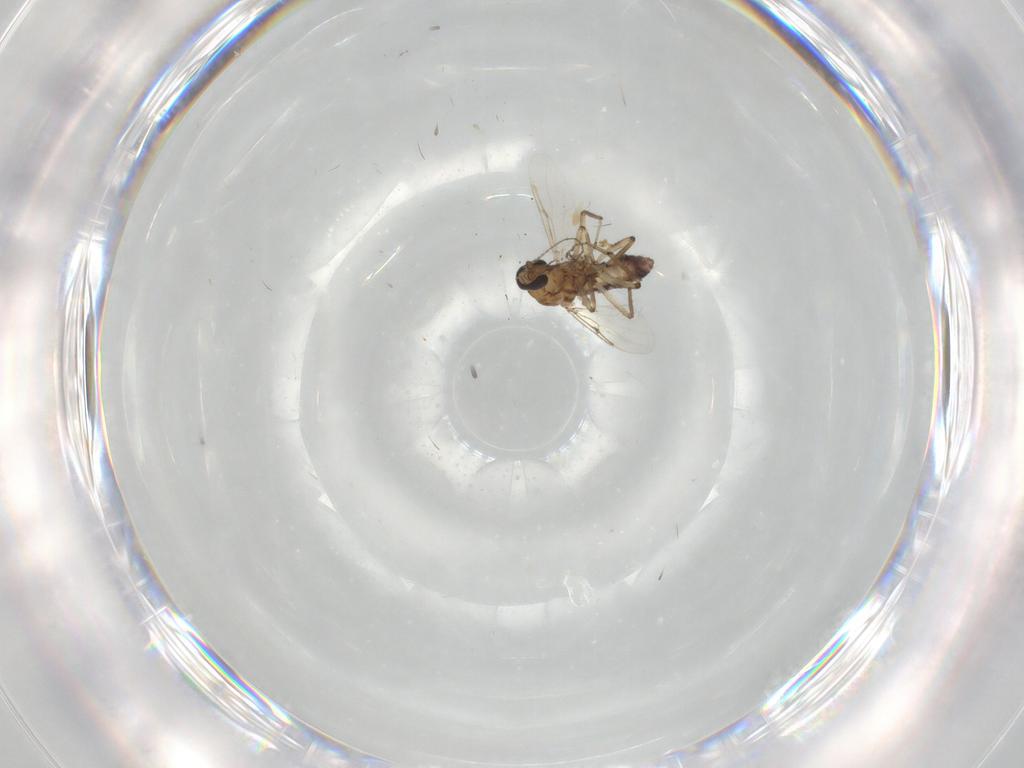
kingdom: Animalia
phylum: Arthropoda
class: Insecta
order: Diptera
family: Ceratopogonidae
